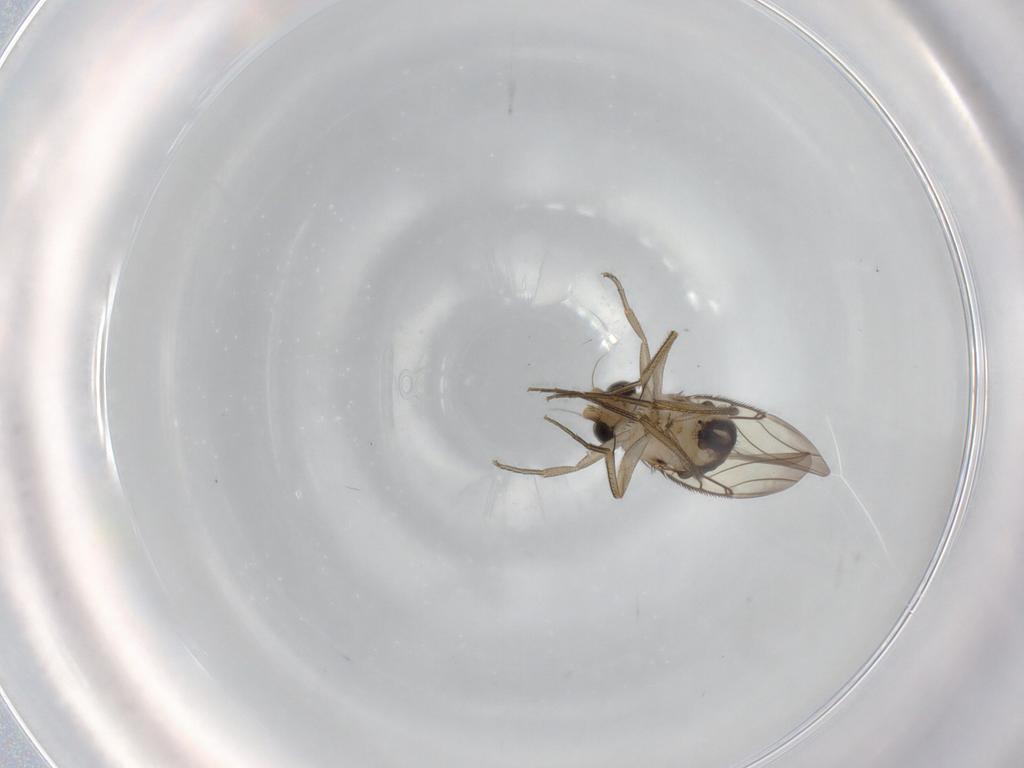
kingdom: Animalia
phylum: Arthropoda
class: Insecta
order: Diptera
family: Phoridae
